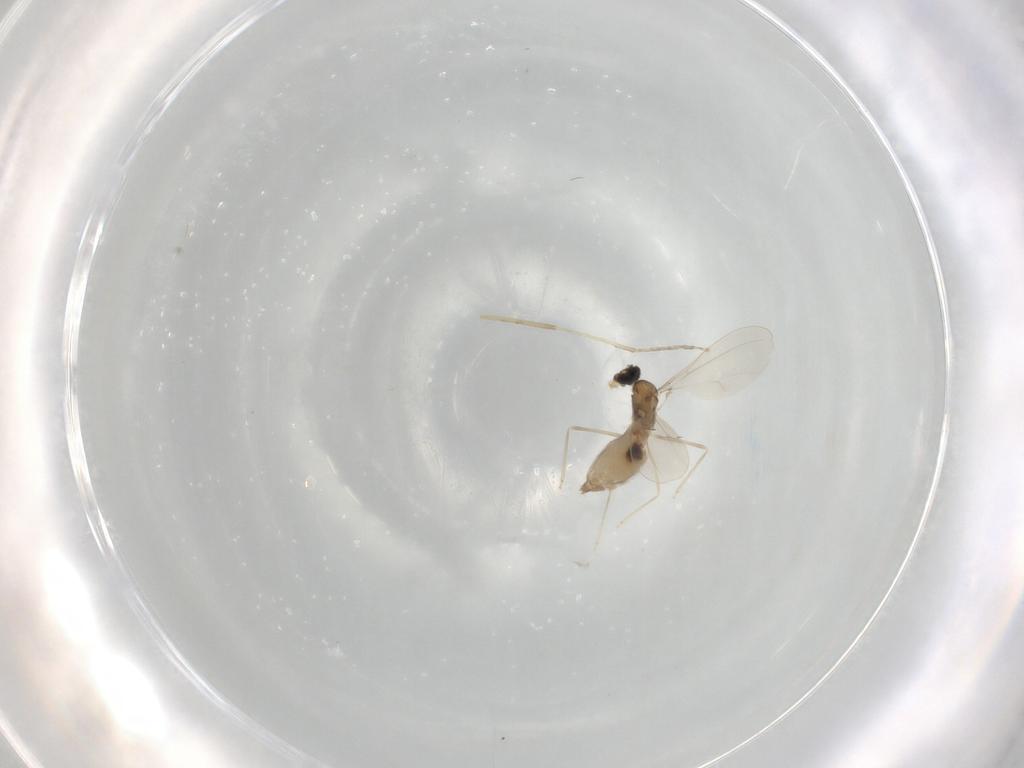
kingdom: Animalia
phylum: Arthropoda
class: Insecta
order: Diptera
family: Cecidomyiidae
